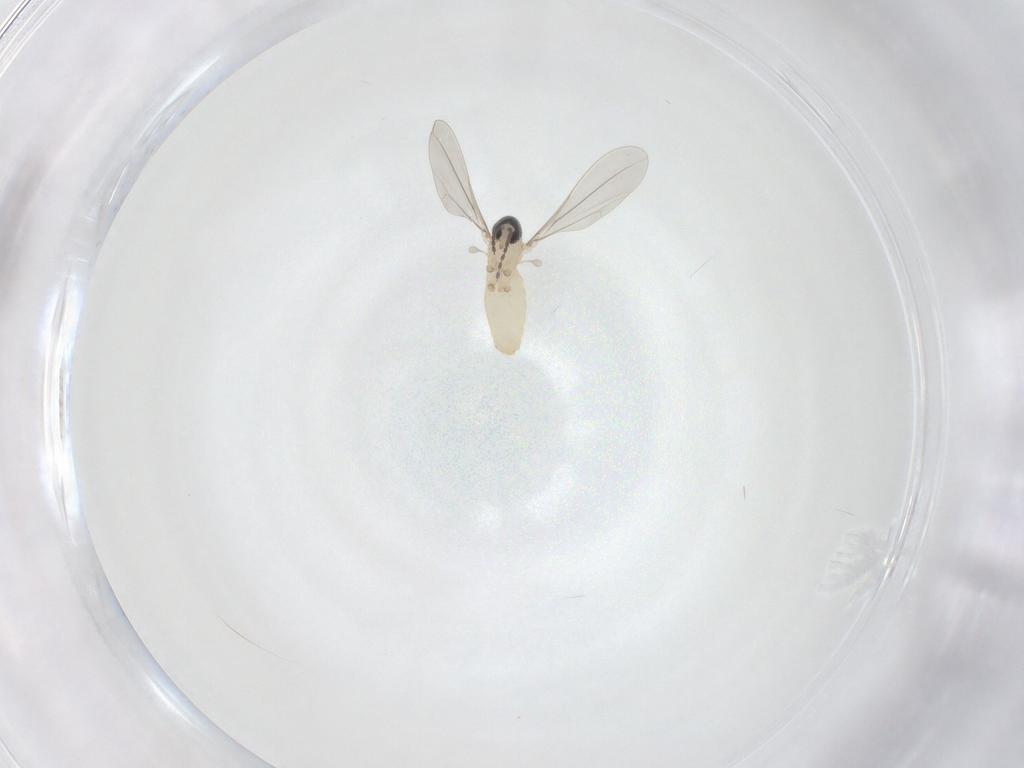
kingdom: Animalia
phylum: Arthropoda
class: Insecta
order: Diptera
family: Cecidomyiidae
